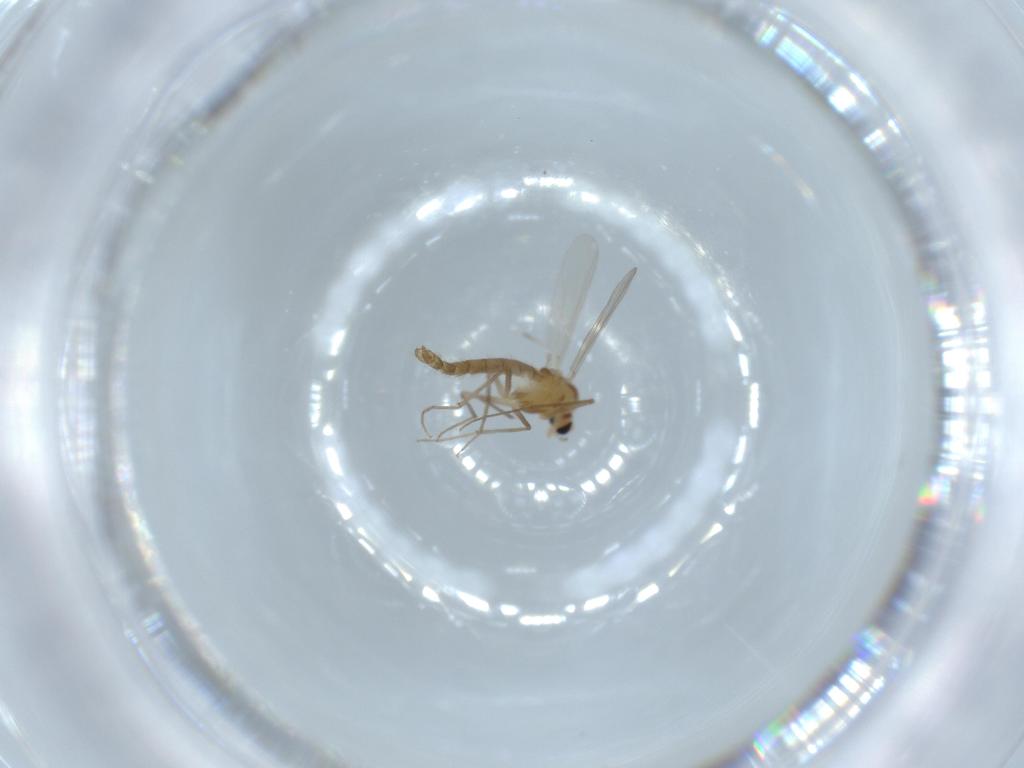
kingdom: Animalia
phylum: Arthropoda
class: Insecta
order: Diptera
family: Chironomidae
